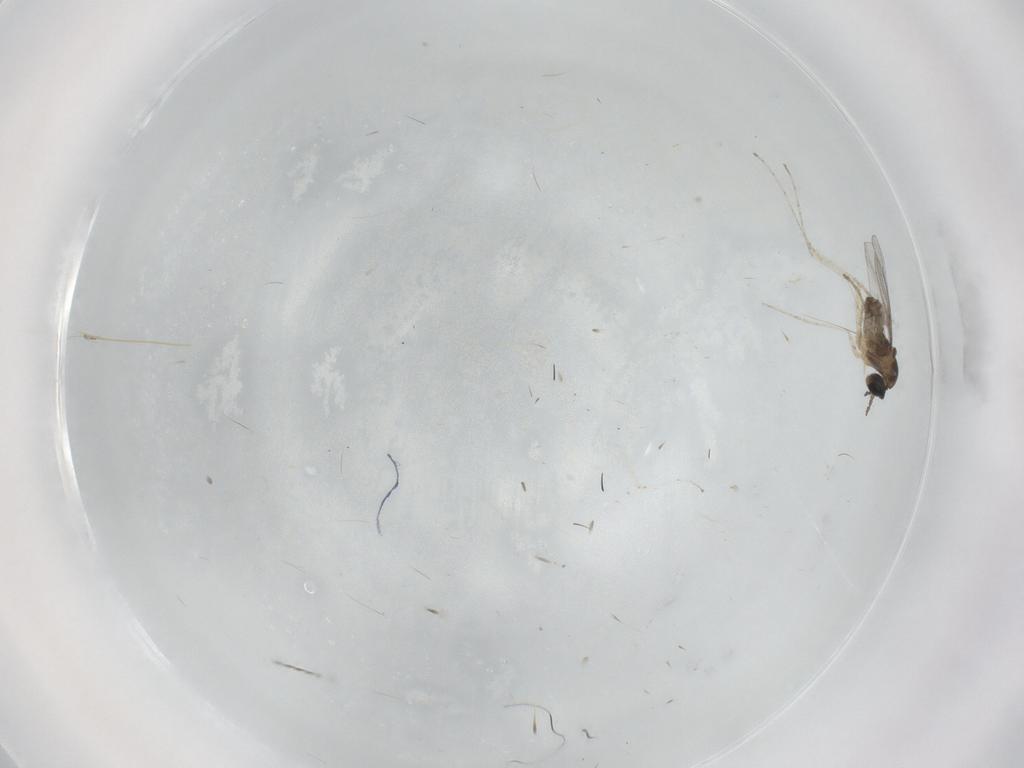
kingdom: Animalia
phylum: Arthropoda
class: Insecta
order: Diptera
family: Cecidomyiidae
